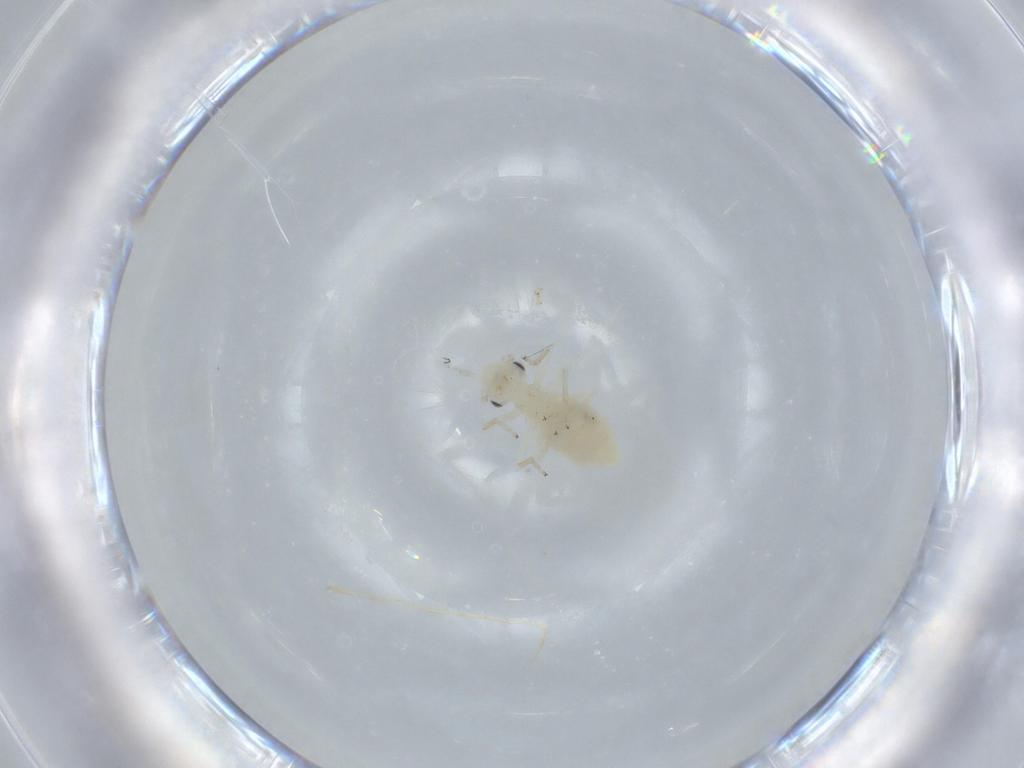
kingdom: Animalia
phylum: Arthropoda
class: Insecta
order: Psocodea
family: Caeciliusidae
